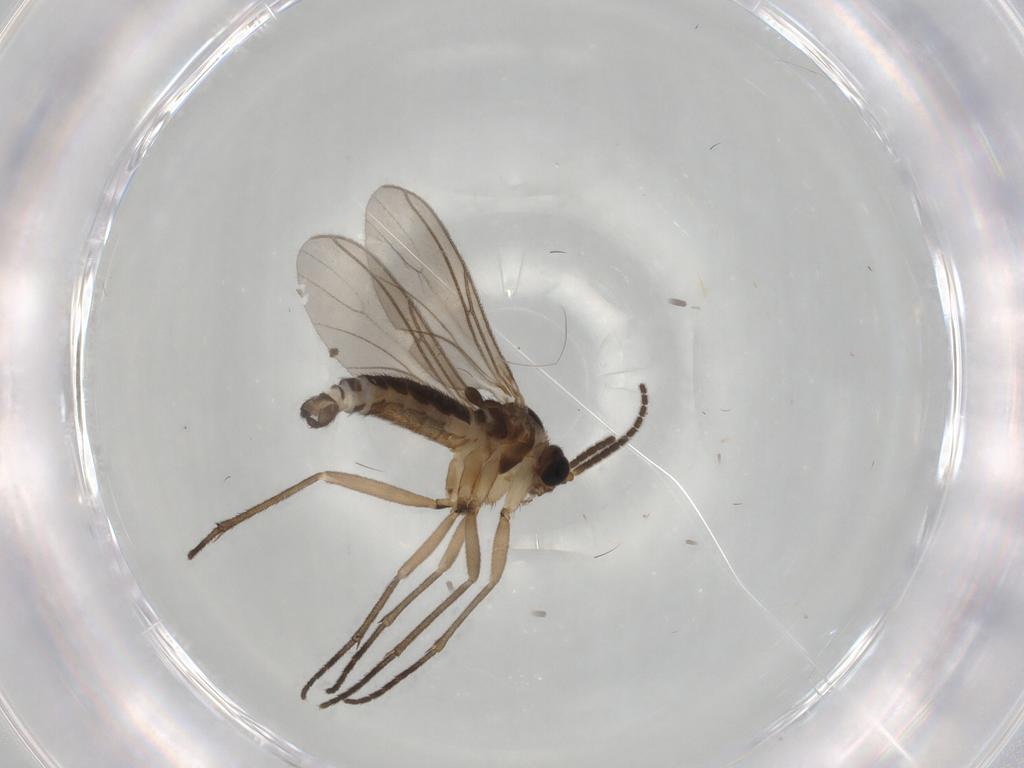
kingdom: Animalia
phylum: Arthropoda
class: Insecta
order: Diptera
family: Sciaridae
